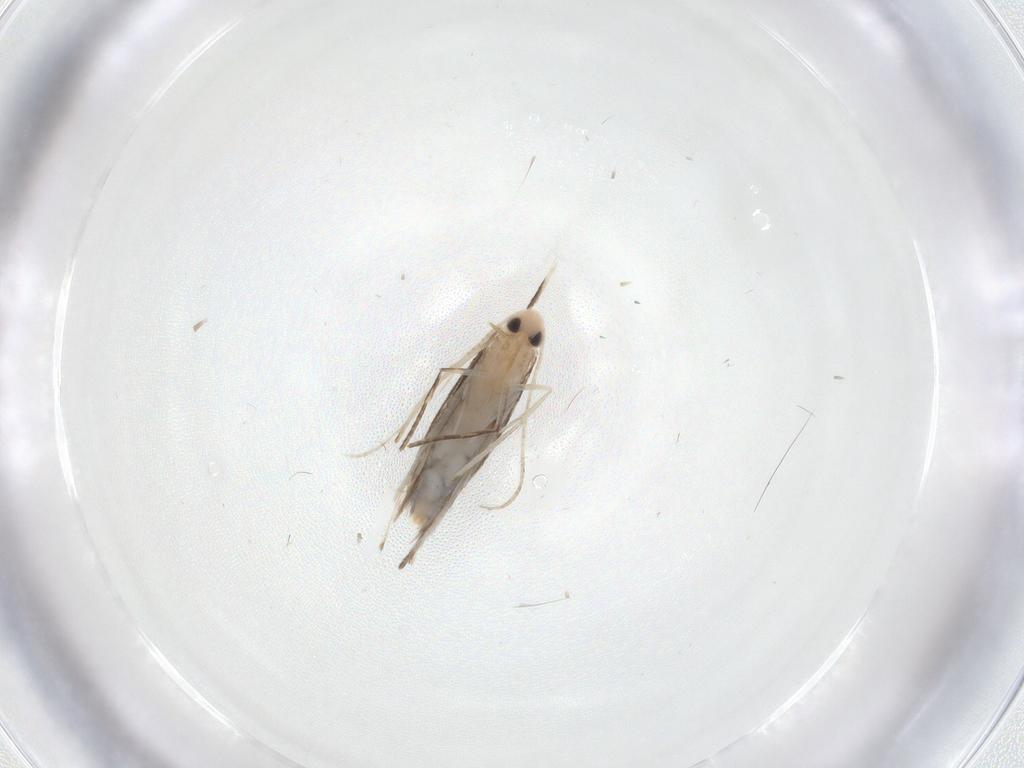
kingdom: Animalia
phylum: Arthropoda
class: Insecta
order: Lepidoptera
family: Nepticulidae
